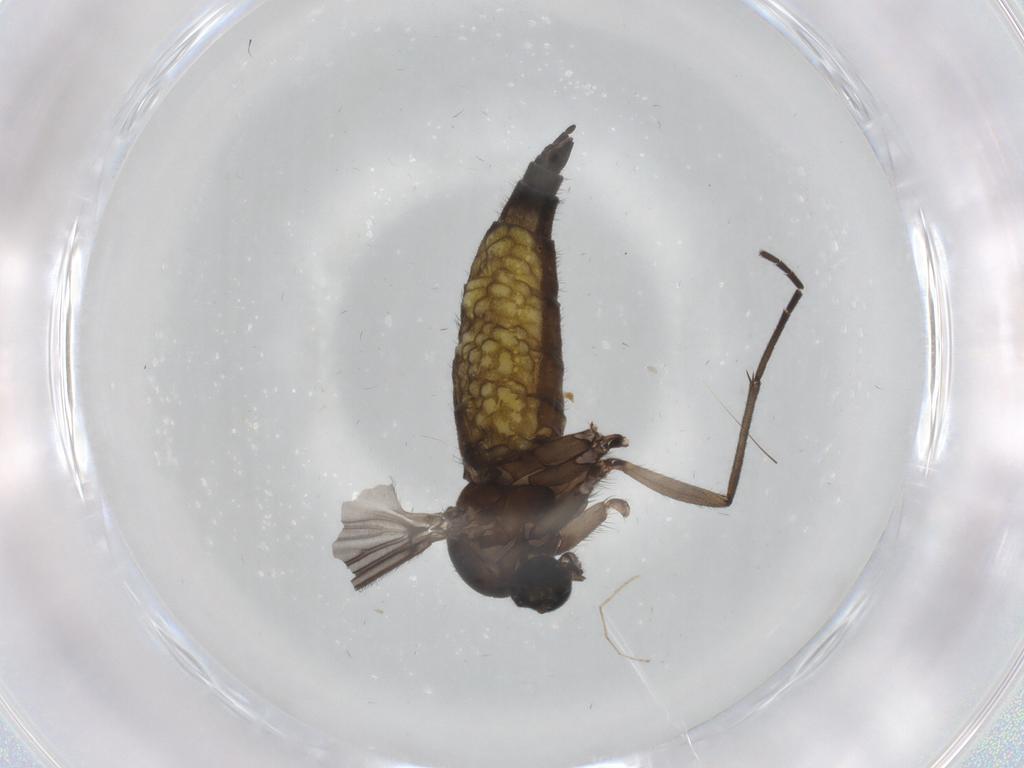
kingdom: Animalia
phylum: Arthropoda
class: Insecta
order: Diptera
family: Sciaridae
